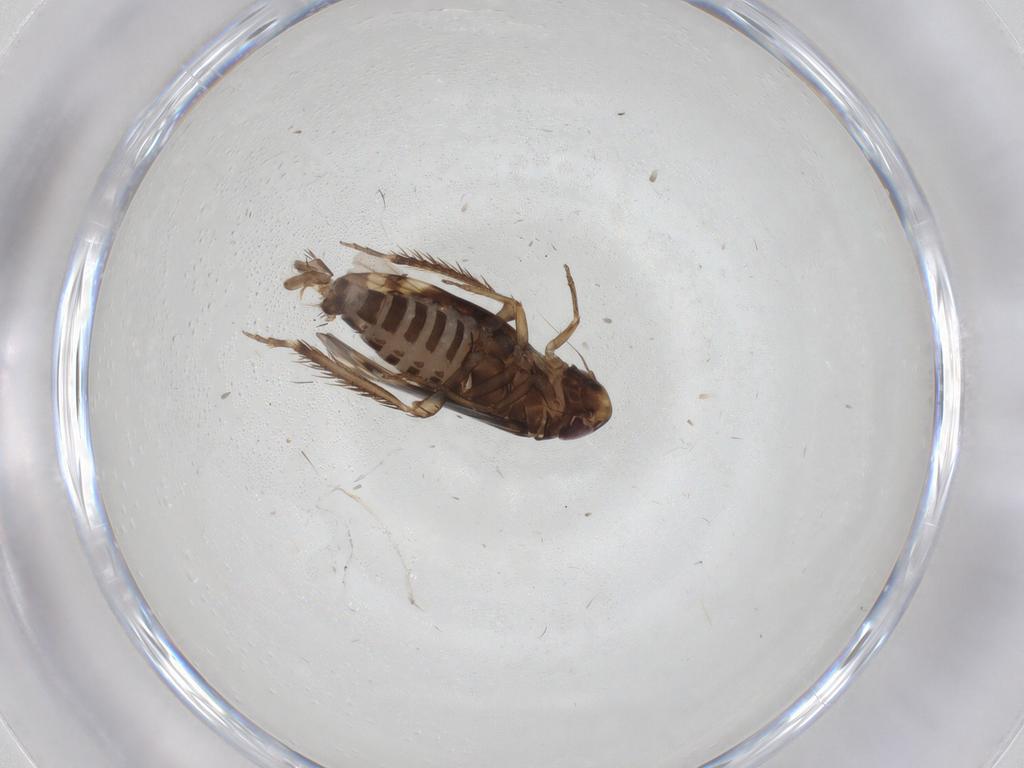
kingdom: Animalia
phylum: Arthropoda
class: Insecta
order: Hemiptera
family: Cicadellidae
